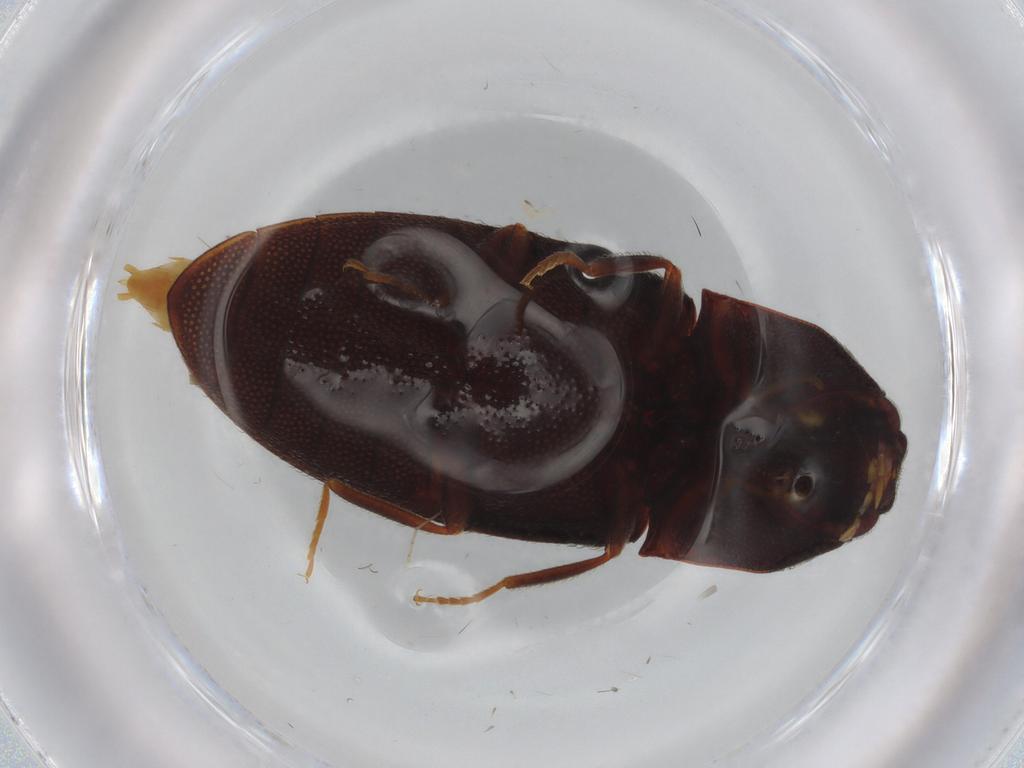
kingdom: Animalia
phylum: Arthropoda
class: Insecta
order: Coleoptera
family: Elateridae
